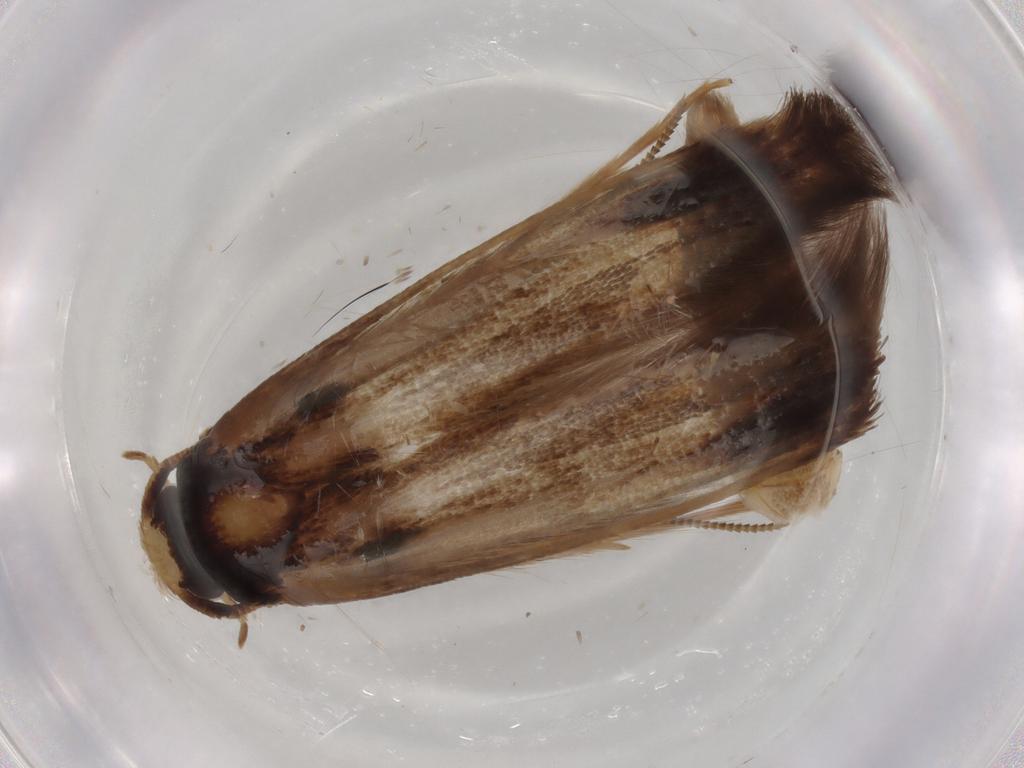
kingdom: Animalia
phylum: Arthropoda
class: Insecta
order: Lepidoptera
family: Tineidae
